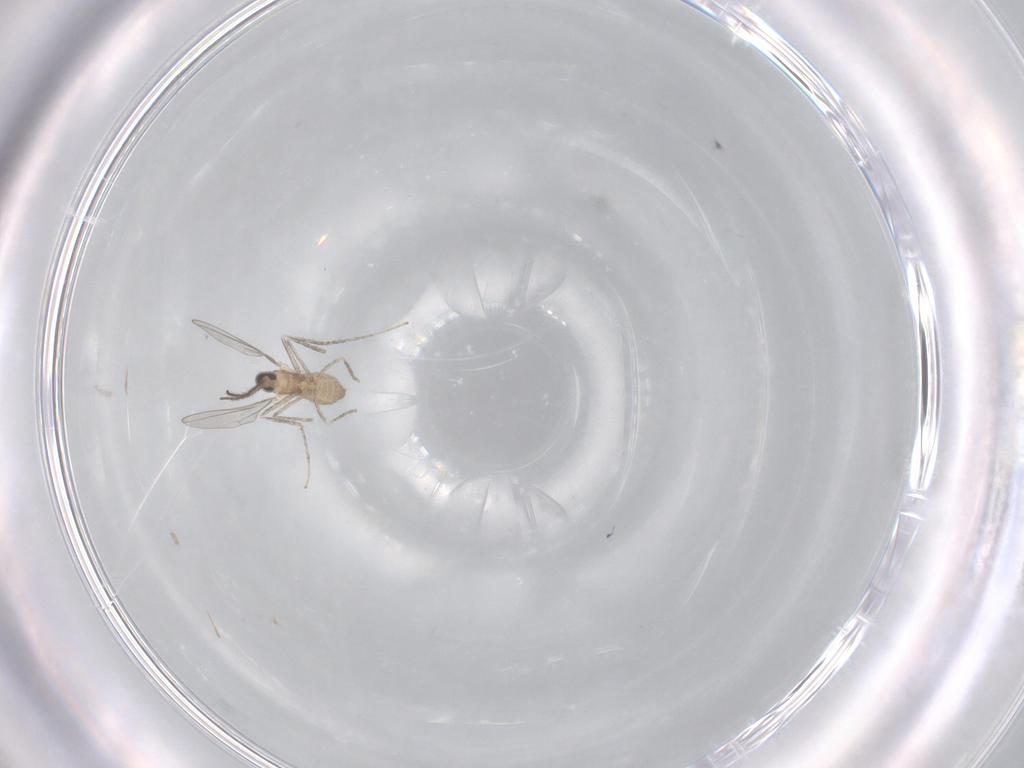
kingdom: Animalia
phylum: Arthropoda
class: Insecta
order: Diptera
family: Cecidomyiidae
